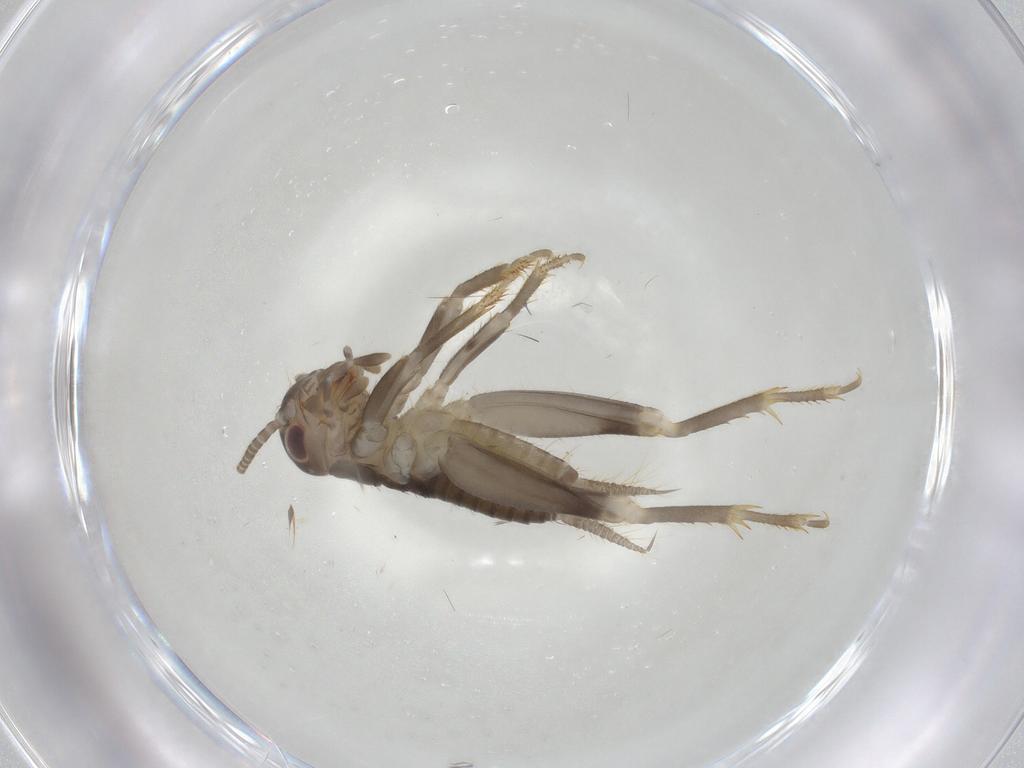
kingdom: Animalia
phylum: Arthropoda
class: Insecta
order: Orthoptera
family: Gryllidae
